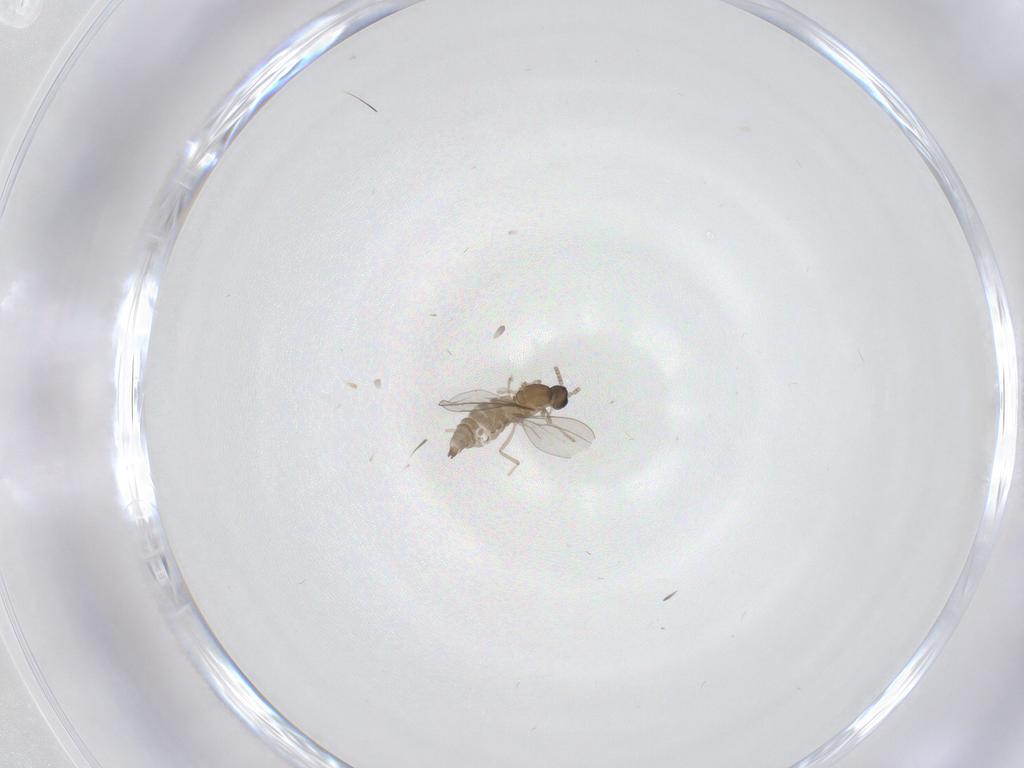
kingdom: Animalia
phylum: Arthropoda
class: Insecta
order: Diptera
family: Cecidomyiidae
